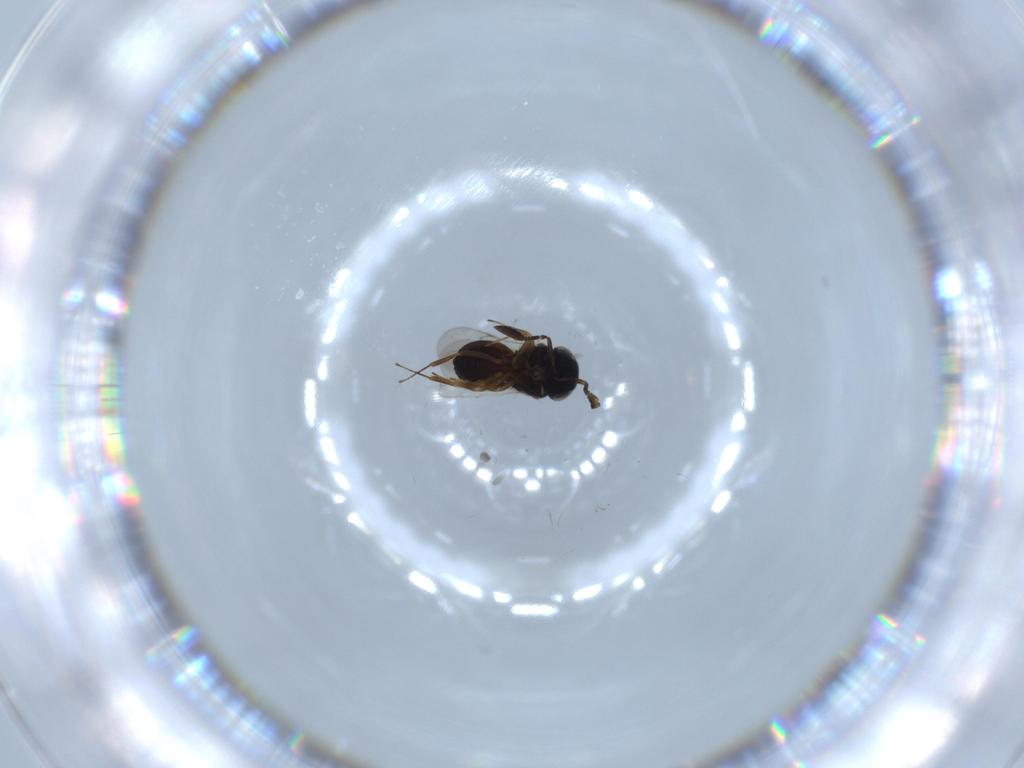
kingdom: Animalia
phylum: Arthropoda
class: Insecta
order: Hymenoptera
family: Scelionidae
